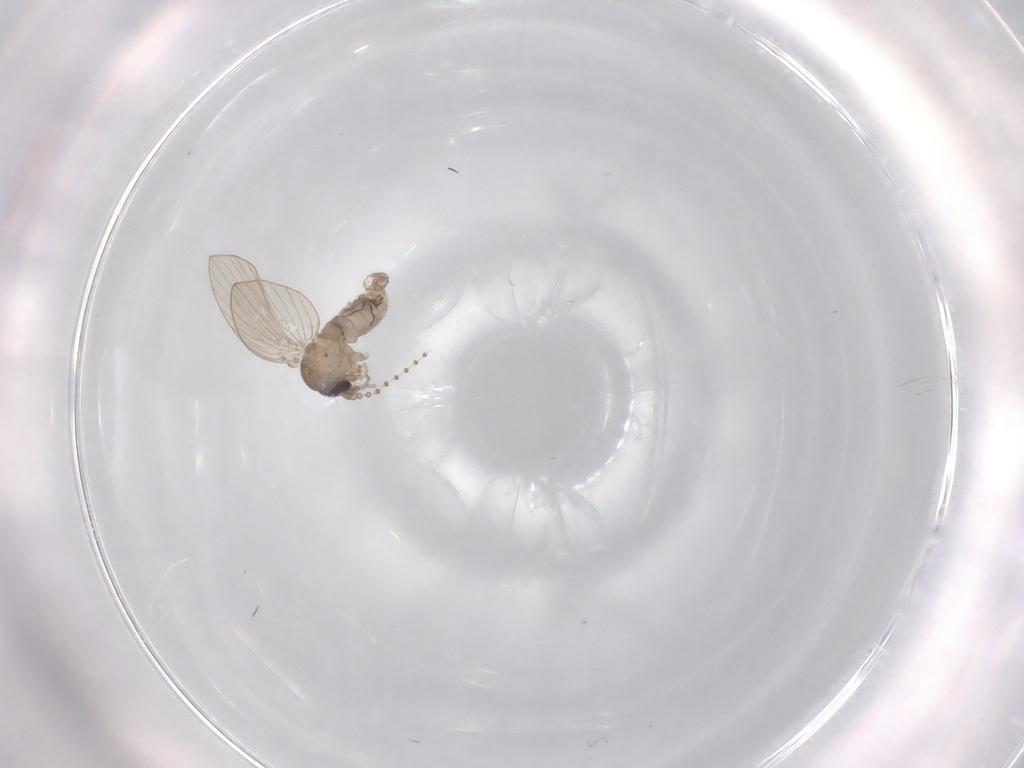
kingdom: Animalia
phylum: Arthropoda
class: Insecta
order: Diptera
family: Psychodidae
